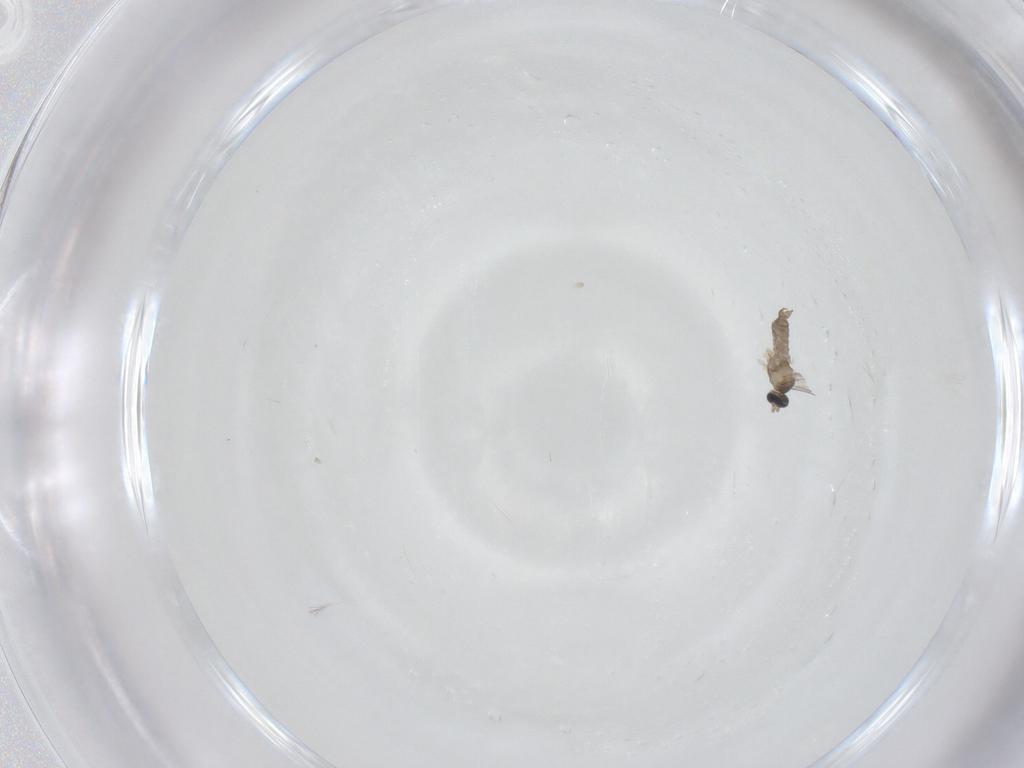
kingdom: Animalia
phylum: Arthropoda
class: Insecta
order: Diptera
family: Cecidomyiidae
